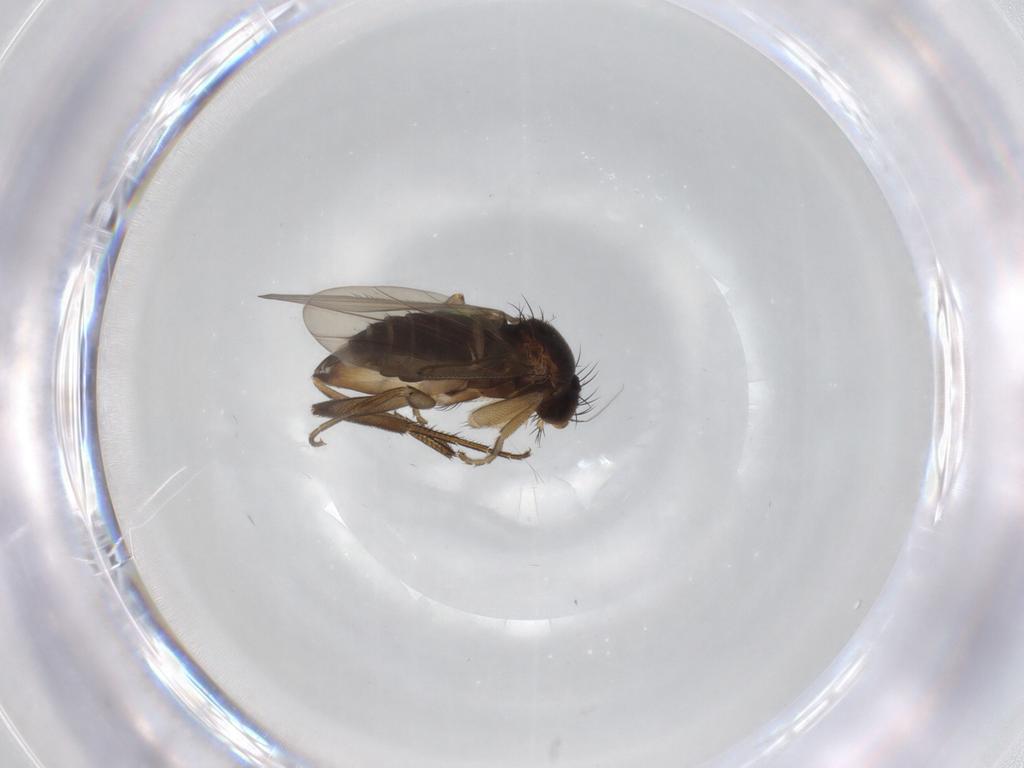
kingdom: Animalia
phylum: Arthropoda
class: Insecta
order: Diptera
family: Phoridae
